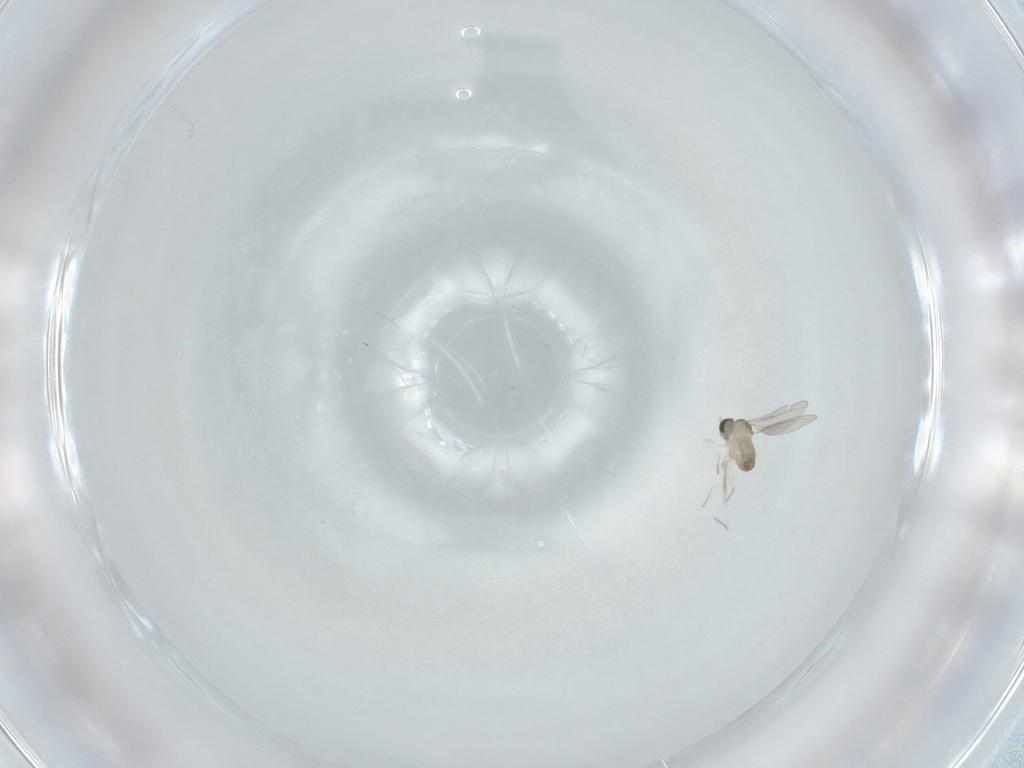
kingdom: Animalia
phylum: Arthropoda
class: Insecta
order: Diptera
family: Cecidomyiidae
